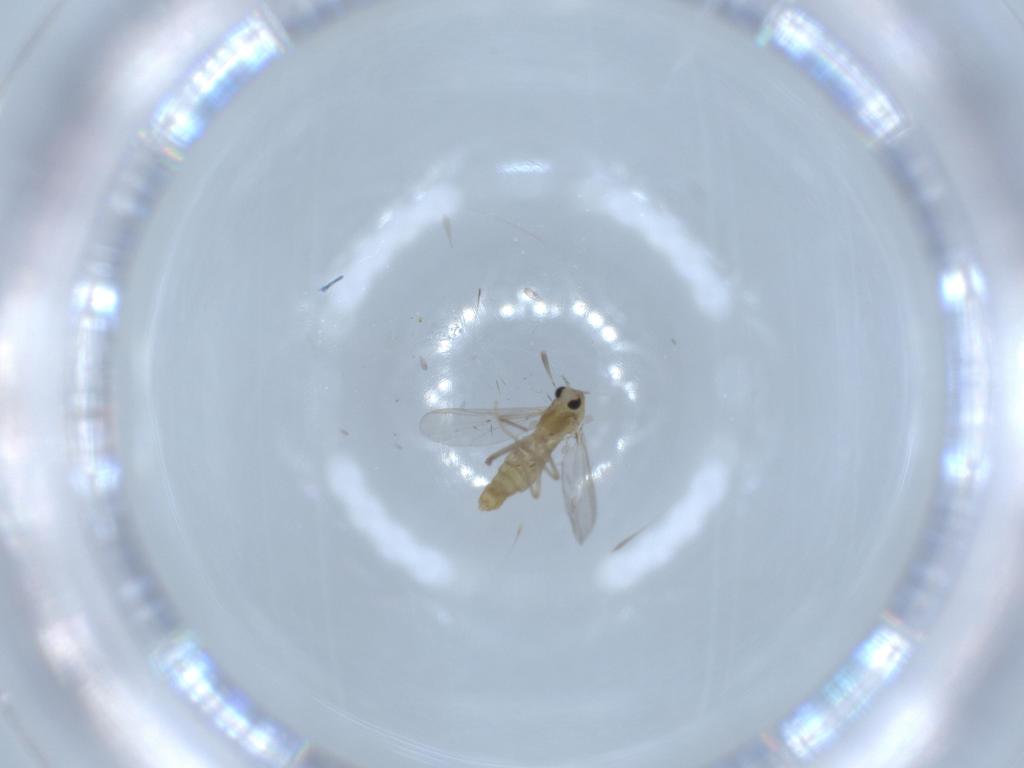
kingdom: Animalia
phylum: Arthropoda
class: Insecta
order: Diptera
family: Chironomidae
